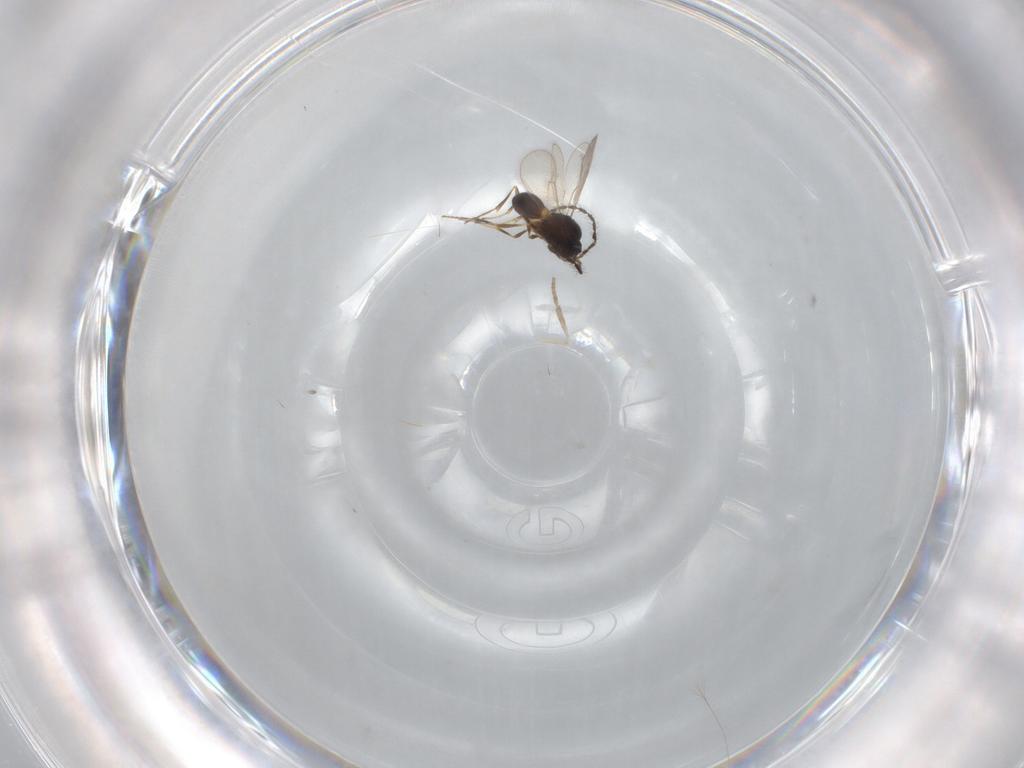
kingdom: Animalia
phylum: Arthropoda
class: Insecta
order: Hymenoptera
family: Scelionidae
